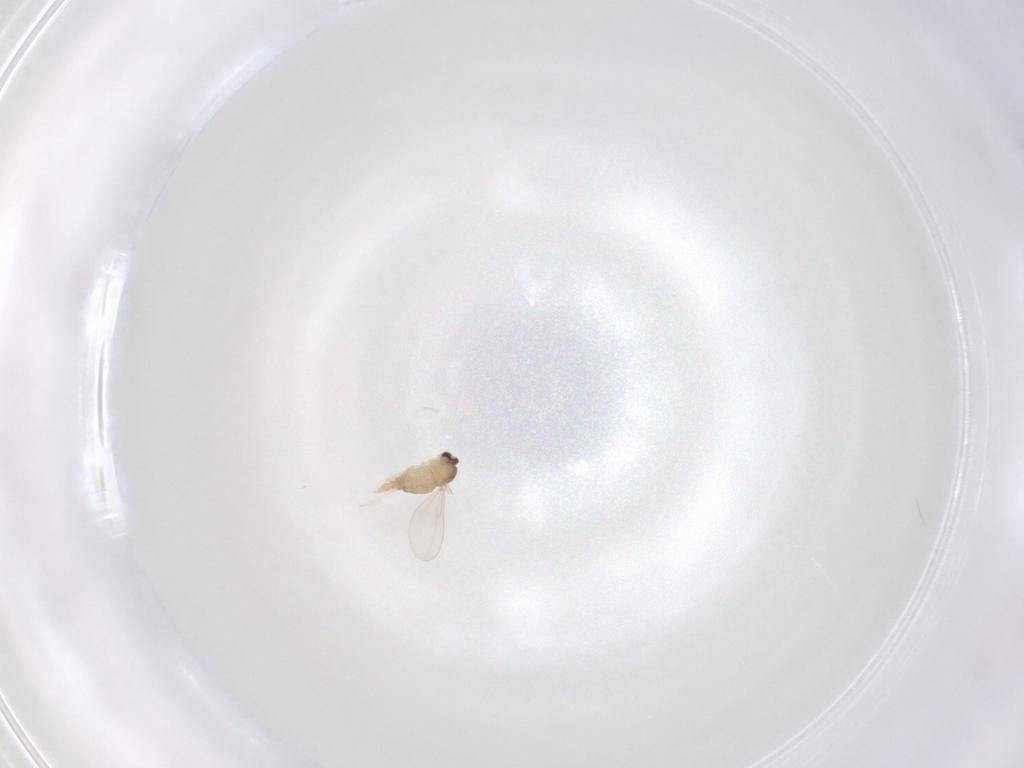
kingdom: Animalia
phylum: Arthropoda
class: Insecta
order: Diptera
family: Cecidomyiidae
